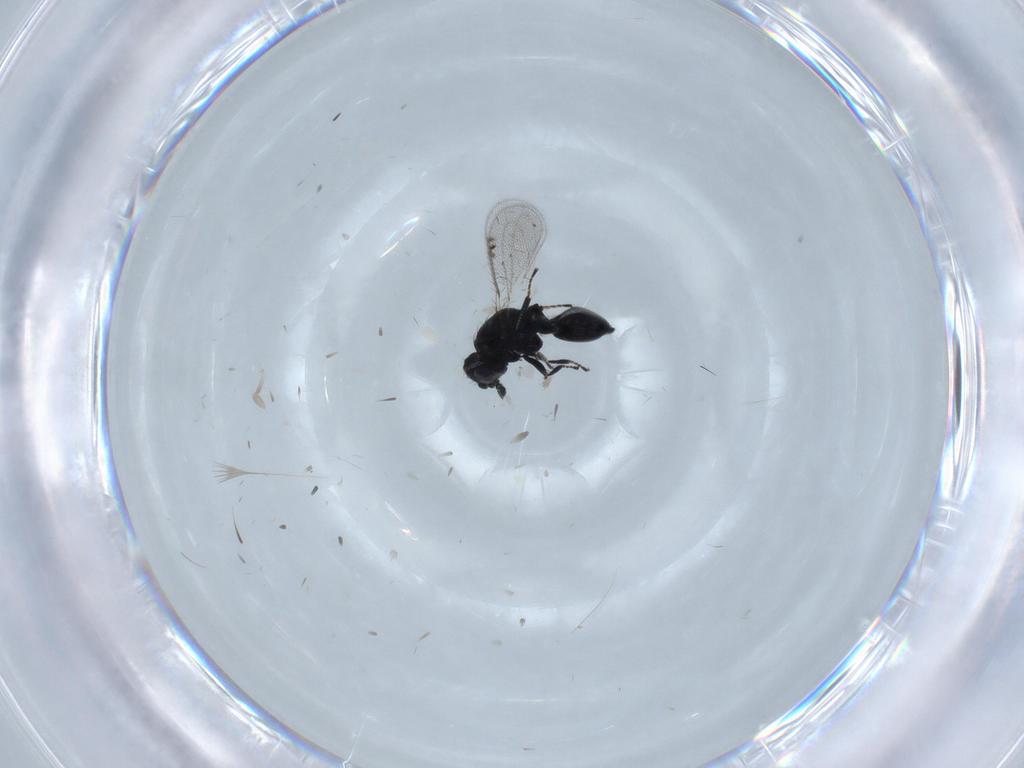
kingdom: Animalia
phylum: Arthropoda
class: Insecta
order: Hymenoptera
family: Eulophidae
